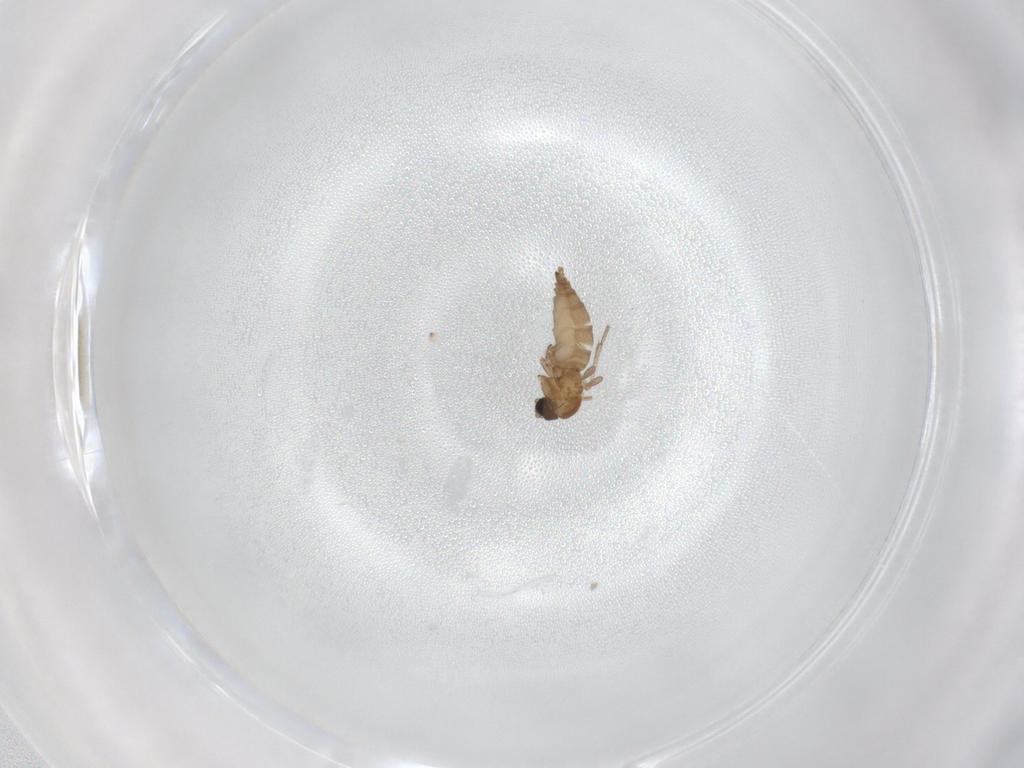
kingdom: Animalia
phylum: Arthropoda
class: Insecta
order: Diptera
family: Sciaridae
